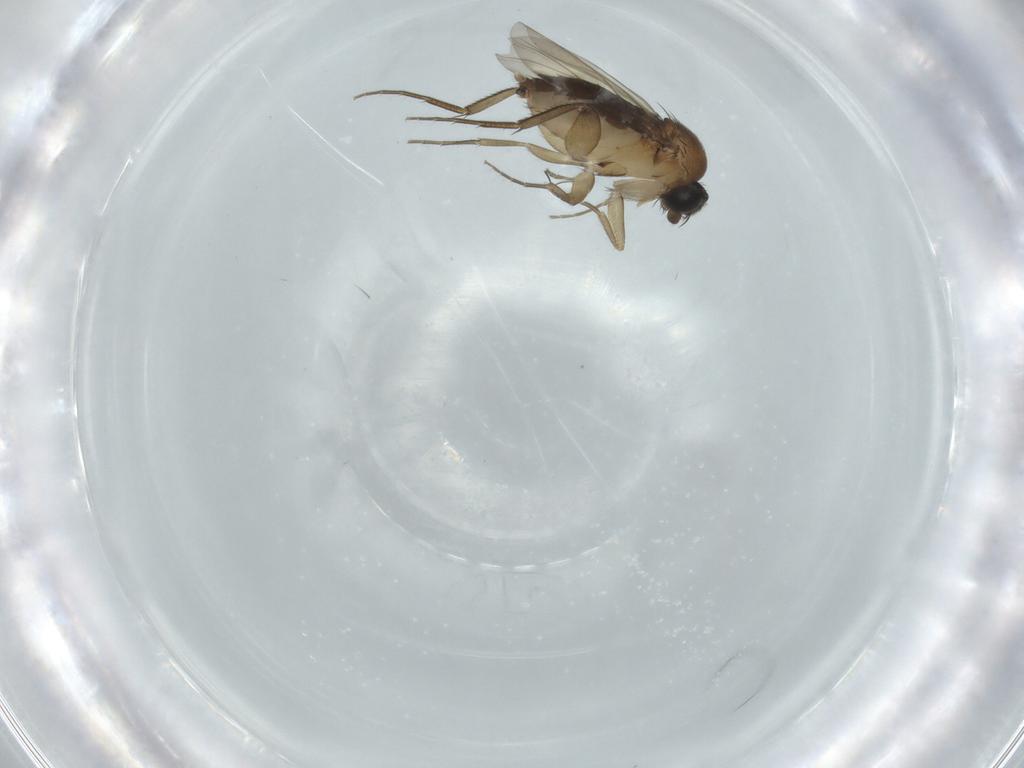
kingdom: Animalia
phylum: Arthropoda
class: Insecta
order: Diptera
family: Phoridae
